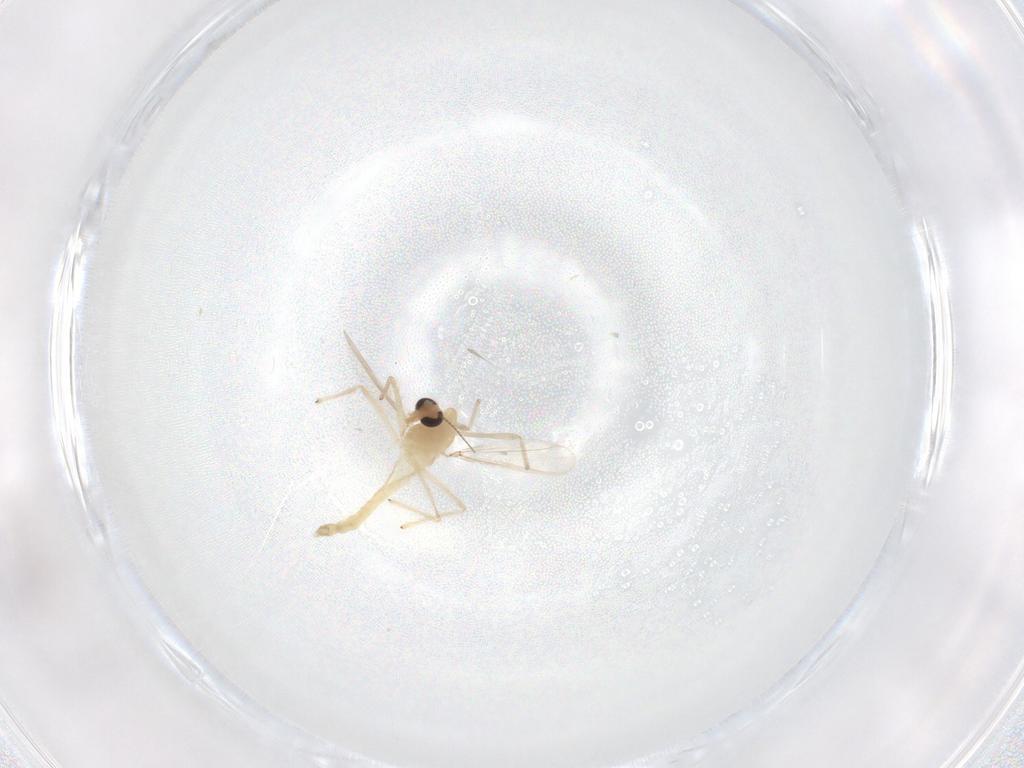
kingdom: Animalia
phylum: Arthropoda
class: Insecta
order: Diptera
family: Chironomidae
